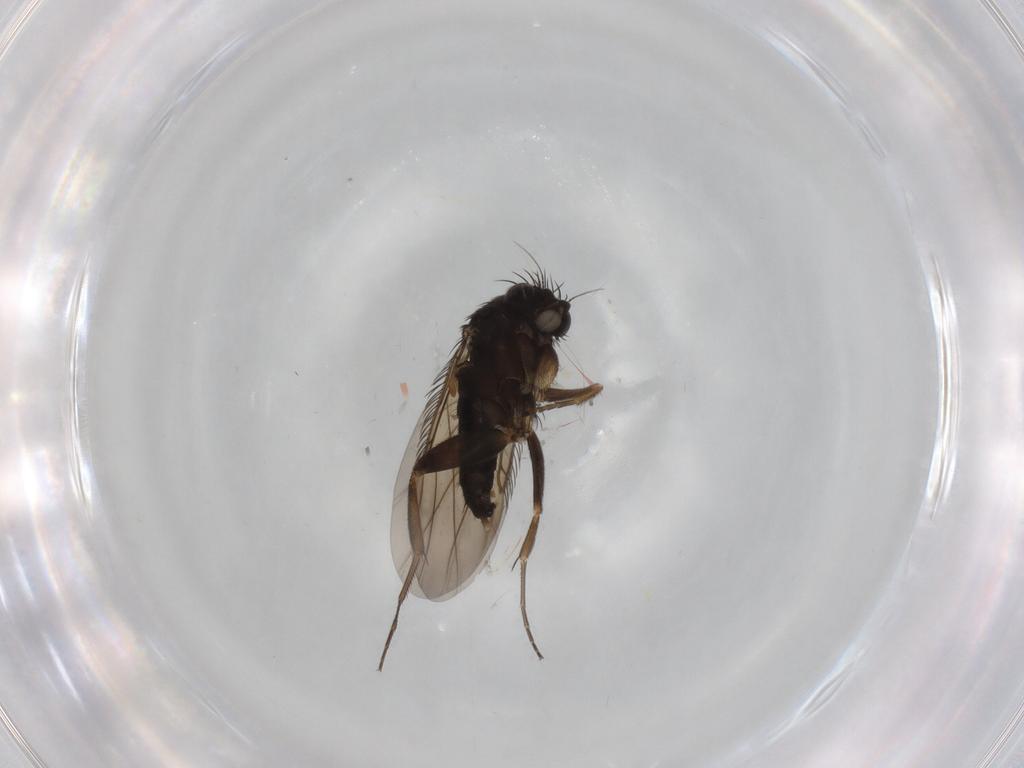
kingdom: Animalia
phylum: Arthropoda
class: Insecta
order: Diptera
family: Phoridae
